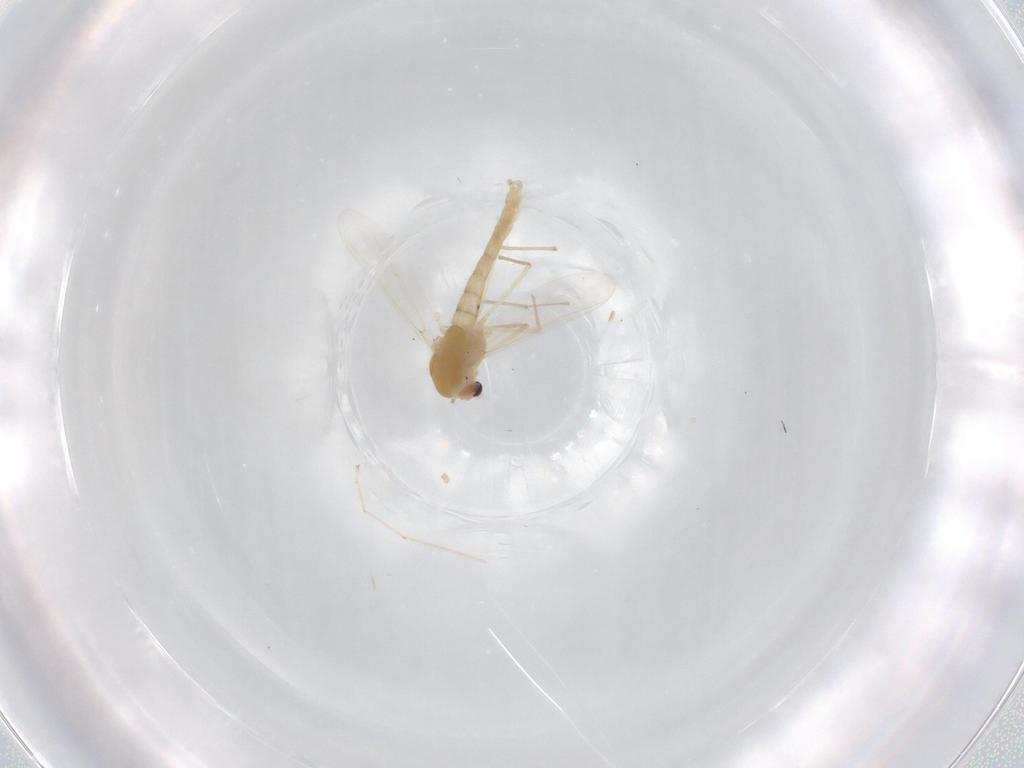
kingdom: Animalia
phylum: Arthropoda
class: Insecta
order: Diptera
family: Chironomidae
